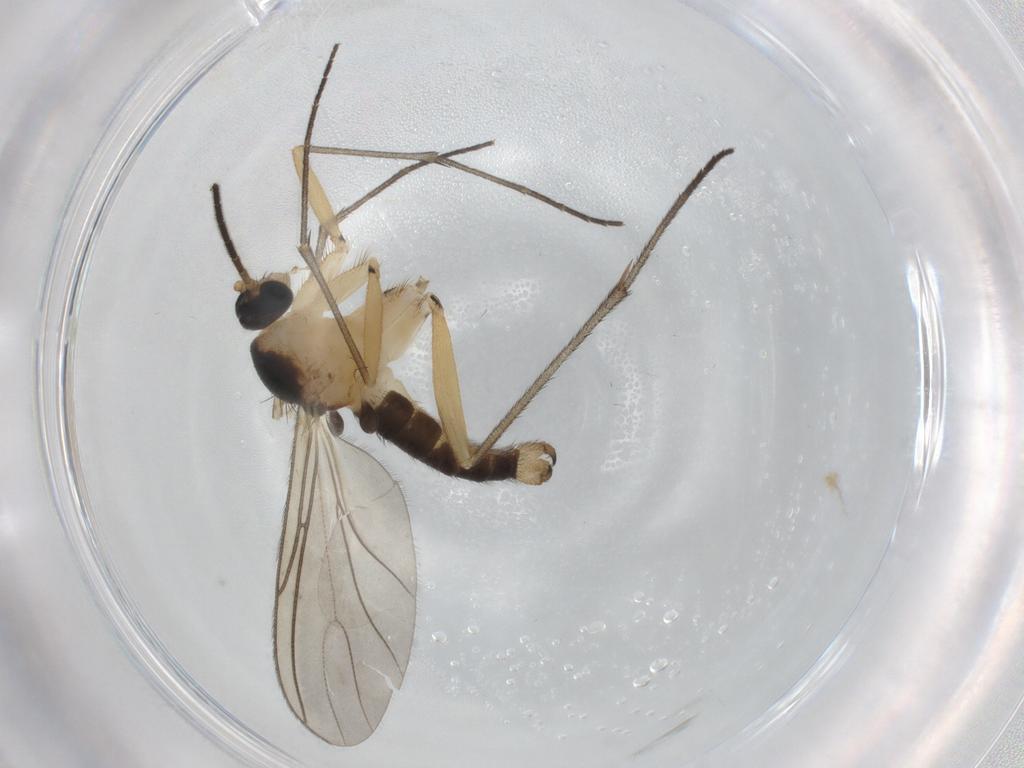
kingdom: Animalia
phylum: Arthropoda
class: Insecta
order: Diptera
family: Sciaridae
